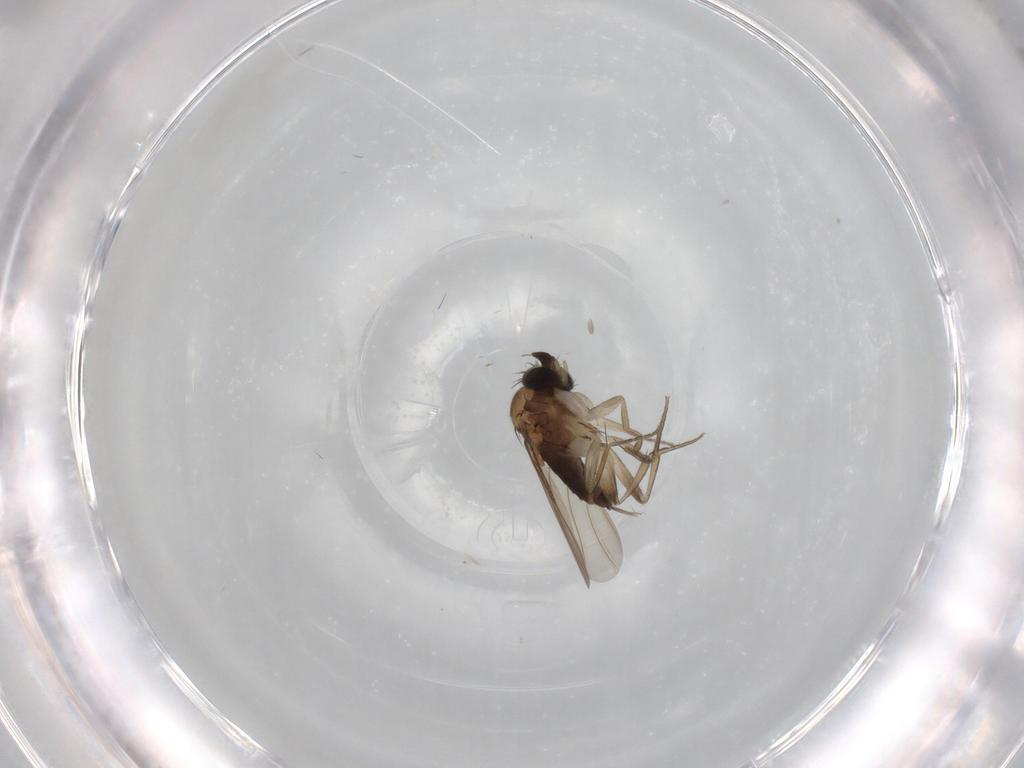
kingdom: Animalia
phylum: Arthropoda
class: Insecta
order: Diptera
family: Phoridae
